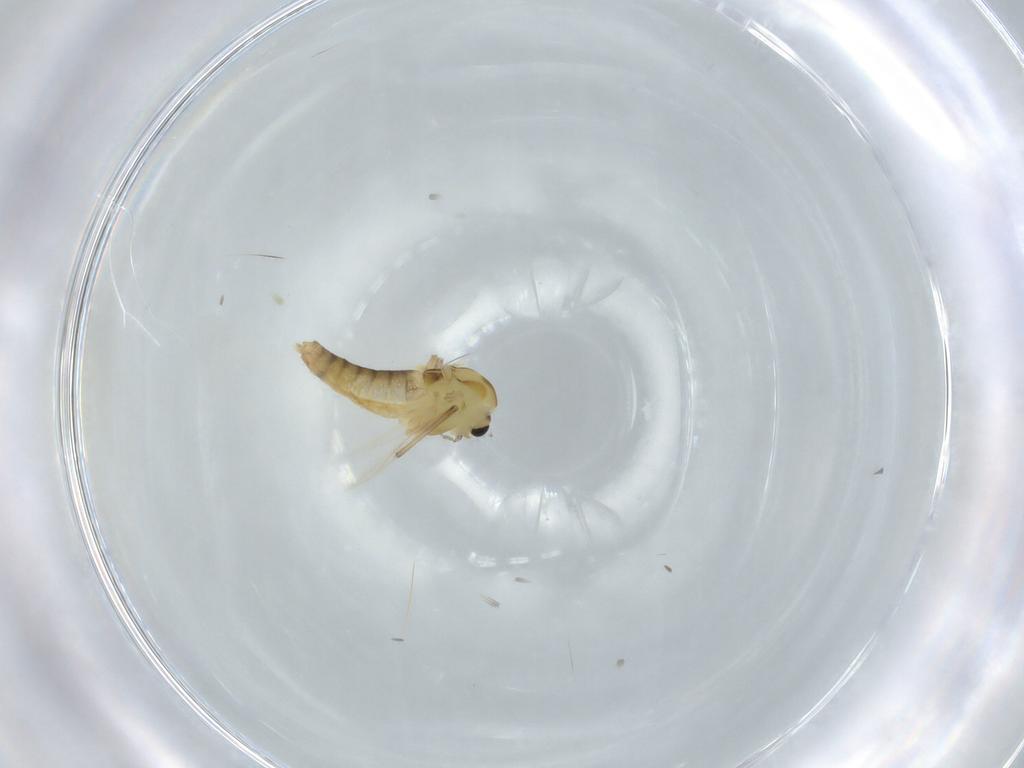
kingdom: Animalia
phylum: Arthropoda
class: Insecta
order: Diptera
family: Chironomidae
